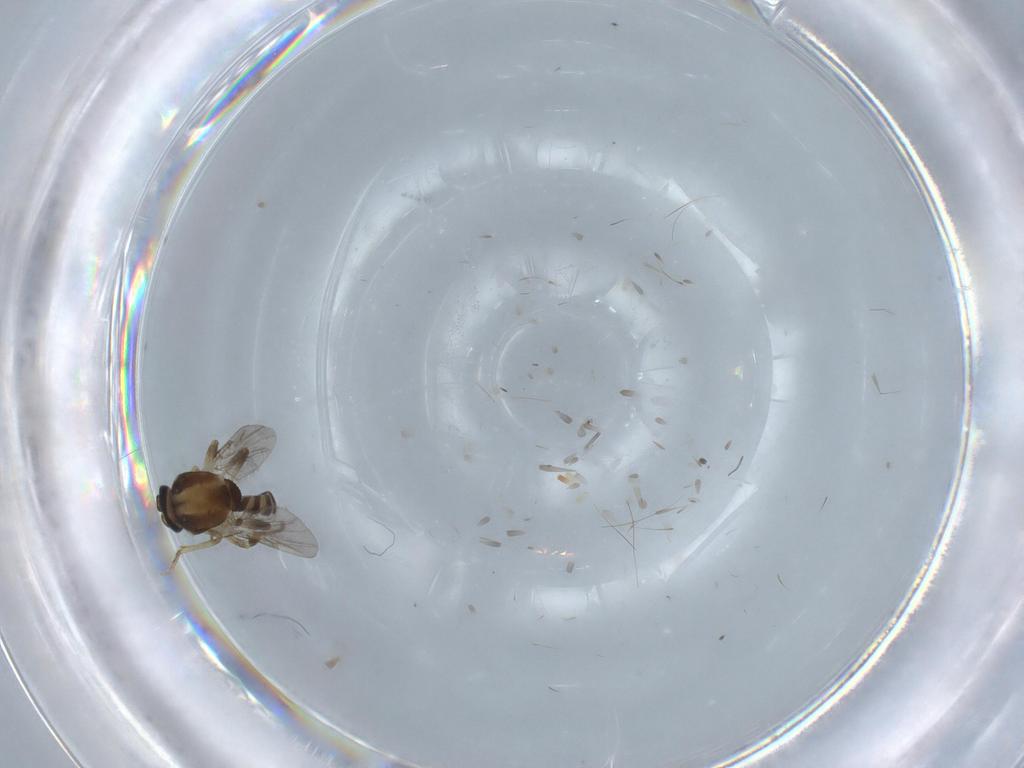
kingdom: Animalia
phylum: Arthropoda
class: Insecta
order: Diptera
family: Ceratopogonidae
